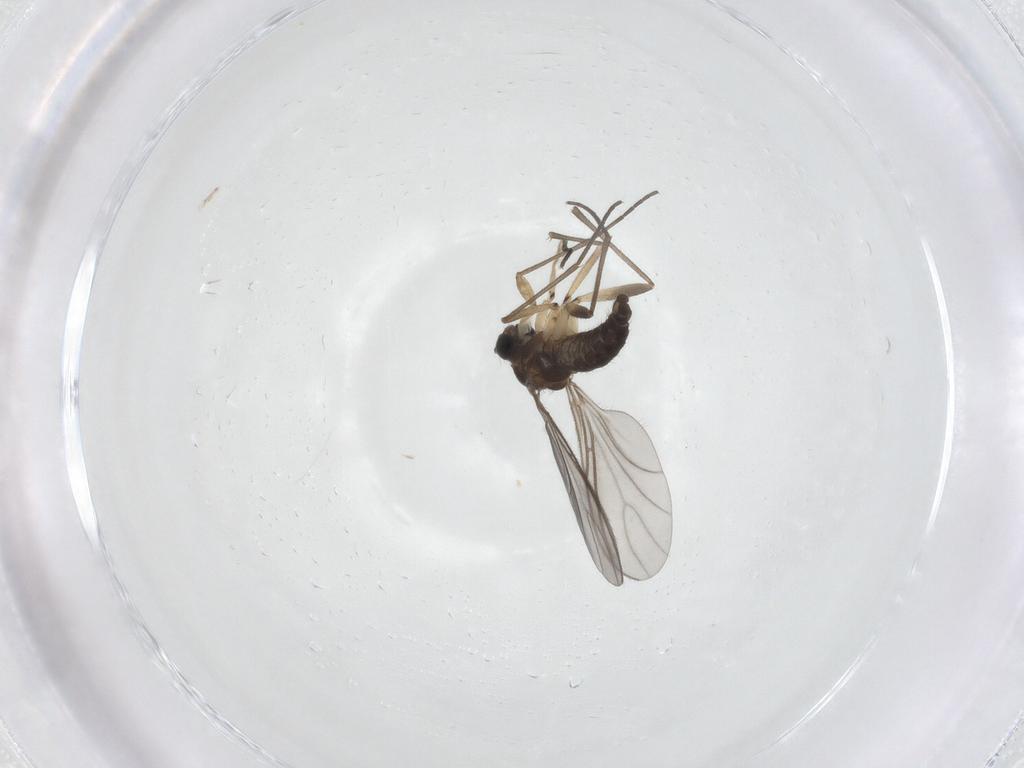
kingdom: Animalia
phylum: Arthropoda
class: Insecta
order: Diptera
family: Sciaridae
